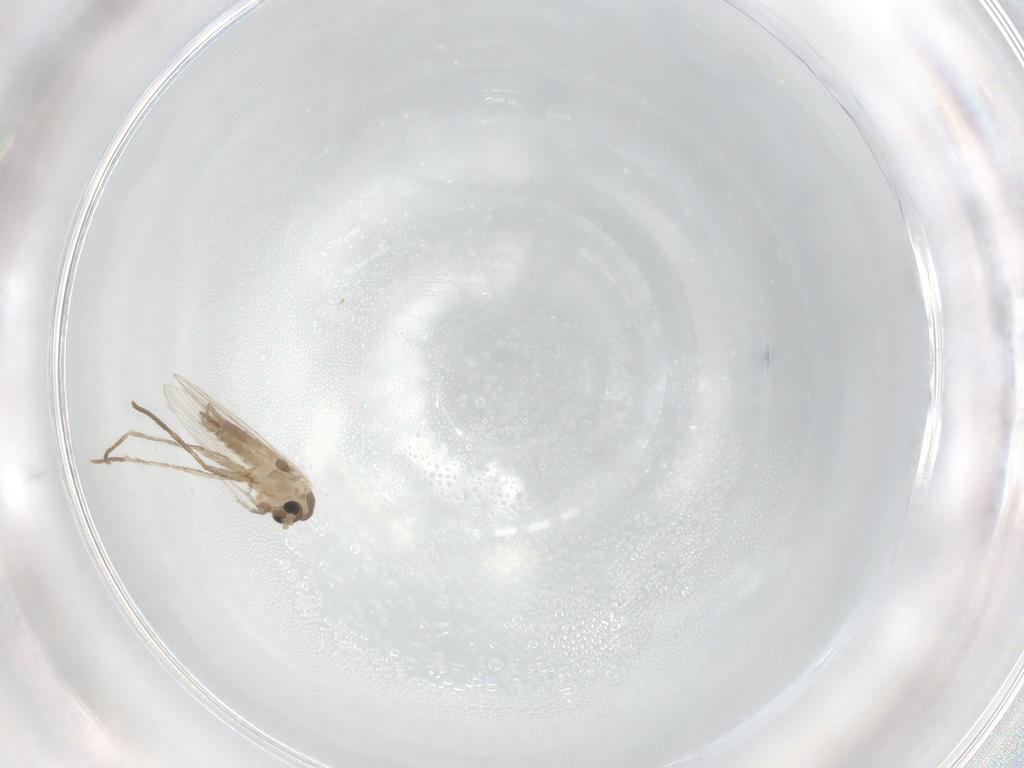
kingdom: Animalia
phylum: Arthropoda
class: Insecta
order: Diptera
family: Psychodidae
